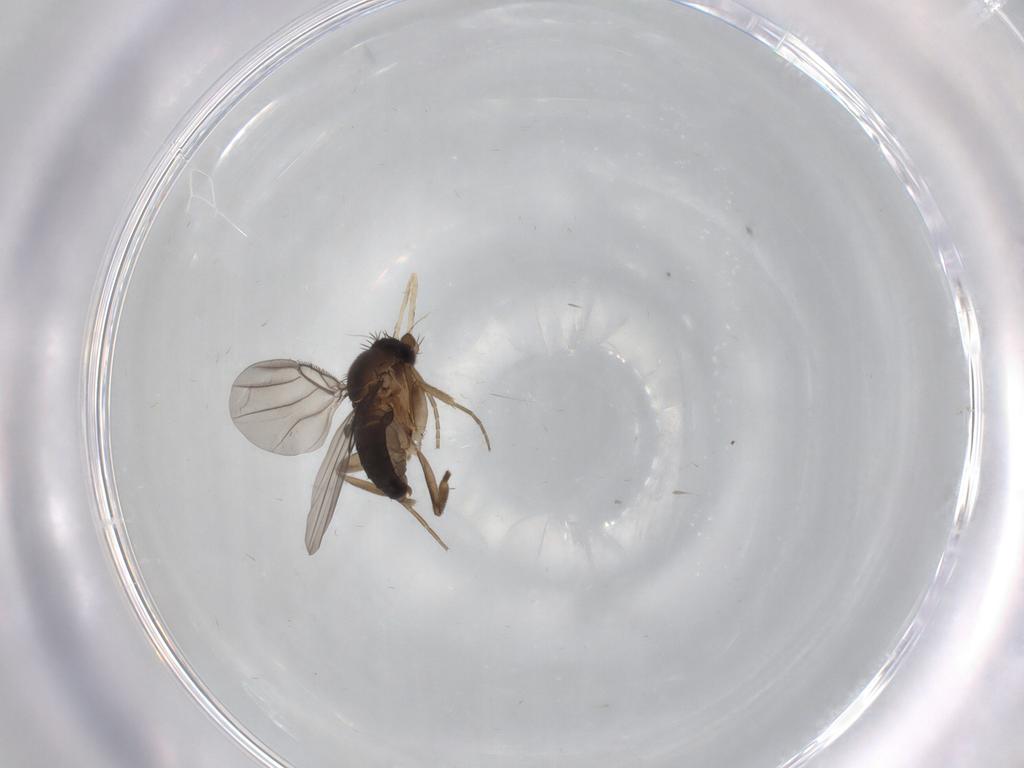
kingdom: Animalia
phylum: Arthropoda
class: Insecta
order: Diptera
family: Cecidomyiidae
